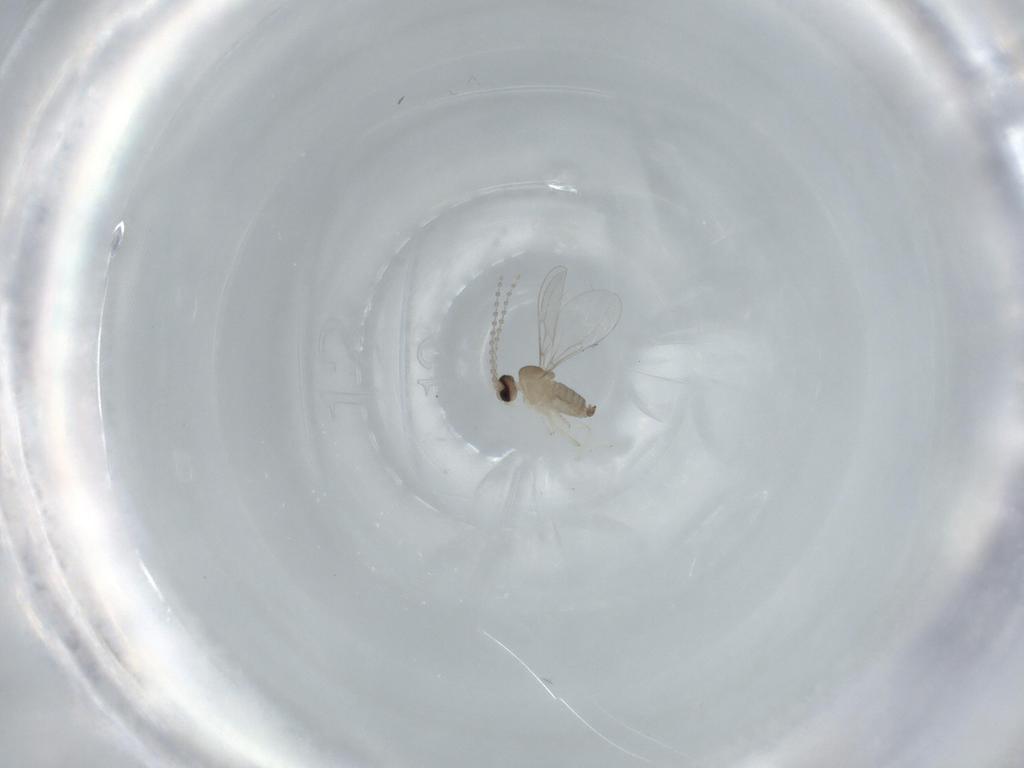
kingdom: Animalia
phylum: Arthropoda
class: Insecta
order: Diptera
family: Cecidomyiidae
